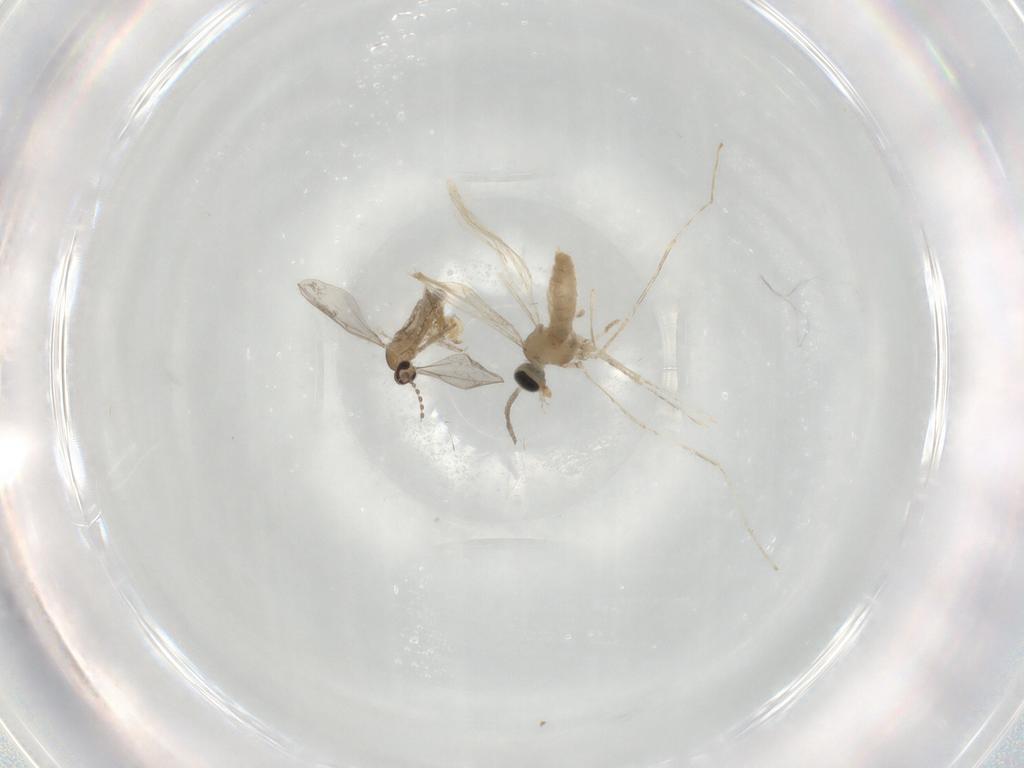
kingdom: Animalia
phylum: Arthropoda
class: Insecta
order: Diptera
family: Cecidomyiidae
